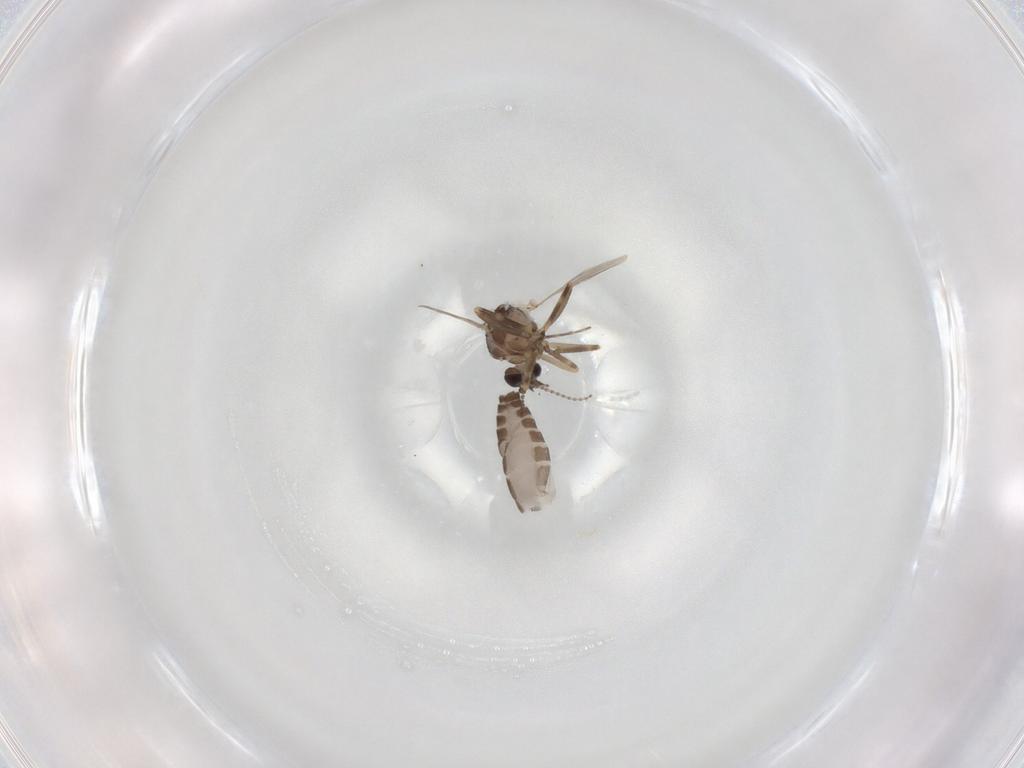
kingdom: Animalia
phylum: Arthropoda
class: Insecta
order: Diptera
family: Ceratopogonidae
